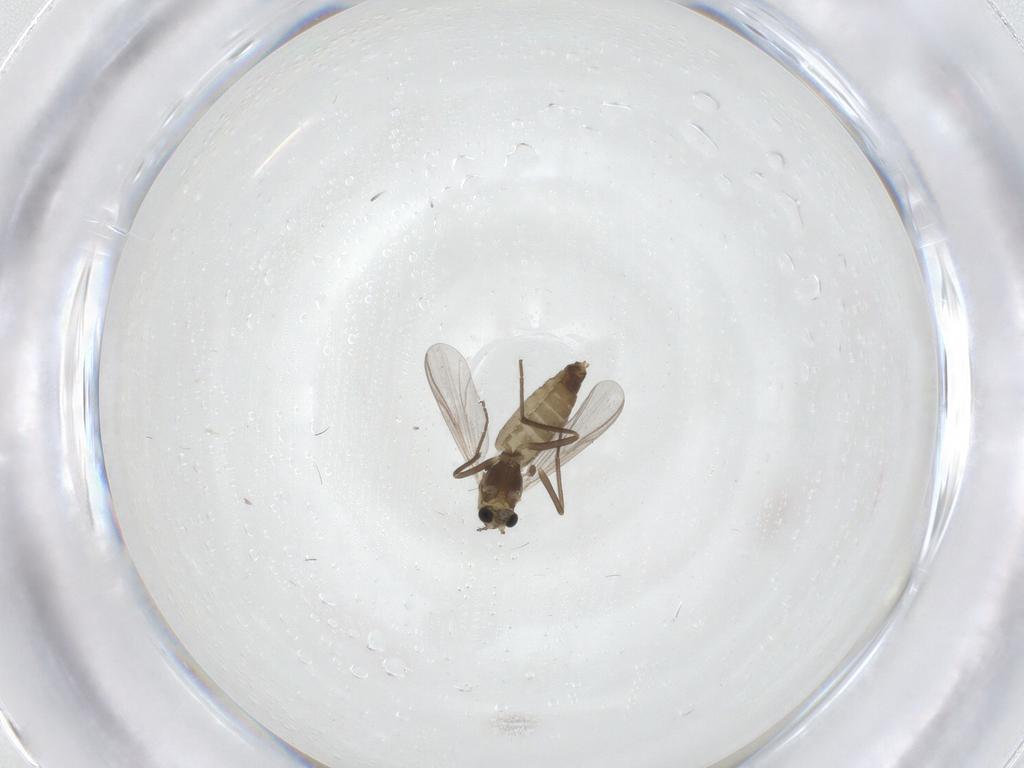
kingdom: Animalia
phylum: Arthropoda
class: Insecta
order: Diptera
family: Chironomidae
